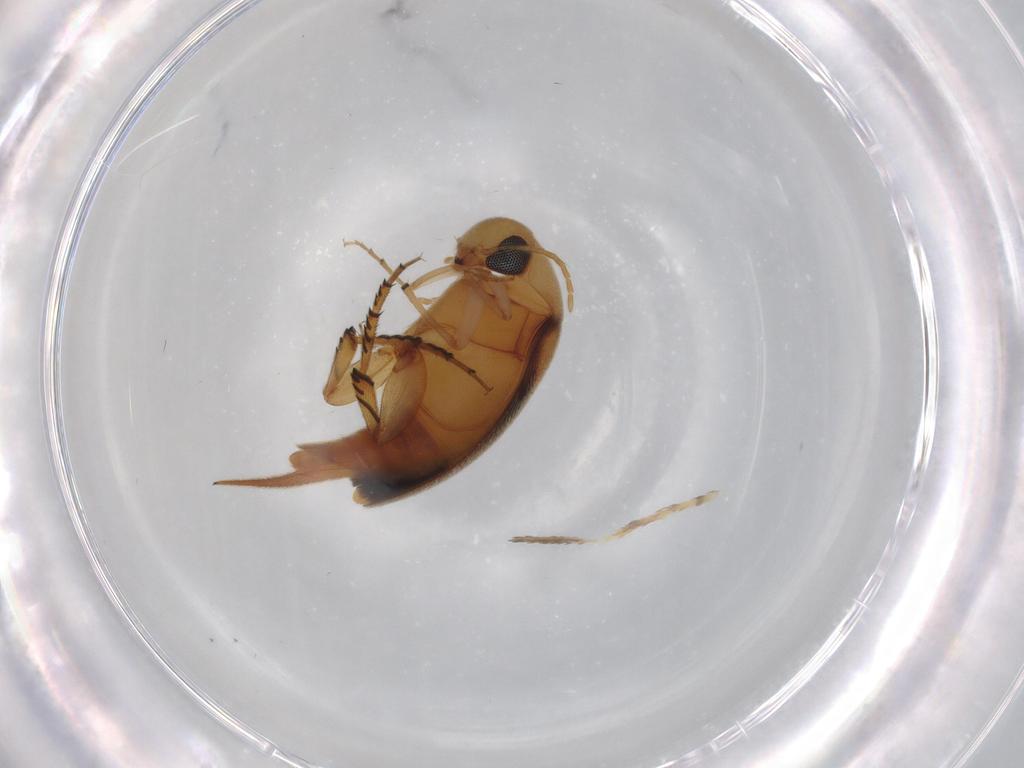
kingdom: Animalia
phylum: Arthropoda
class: Insecta
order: Coleoptera
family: Mordellidae
